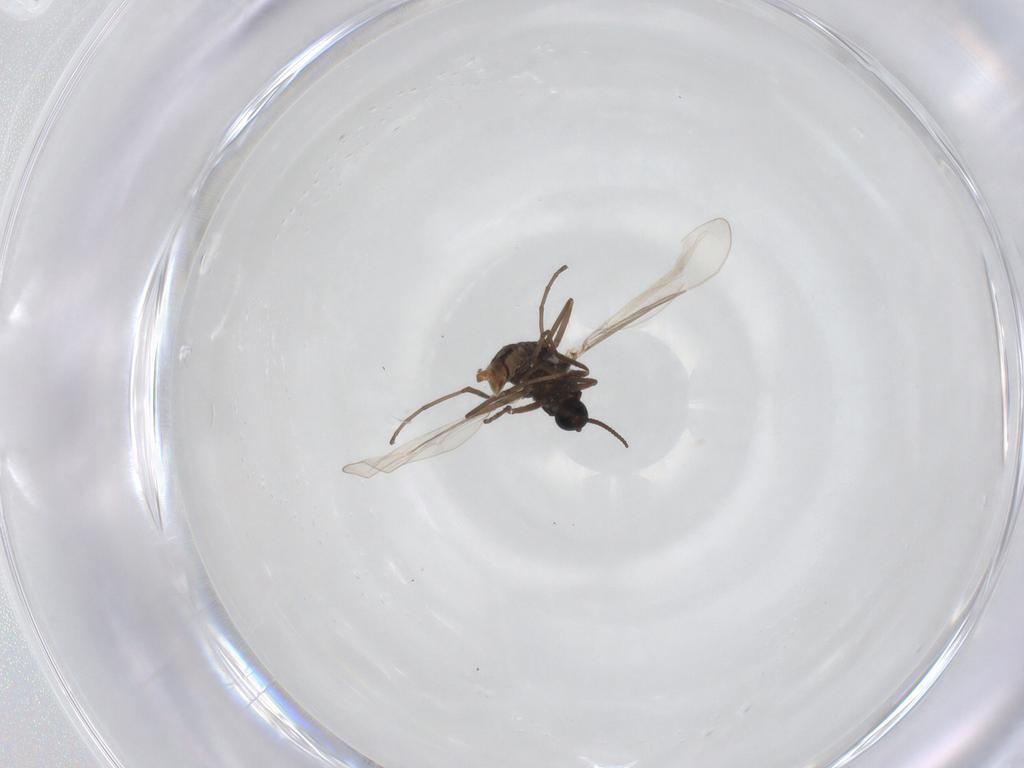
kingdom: Animalia
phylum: Arthropoda
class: Insecta
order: Diptera
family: Cecidomyiidae
